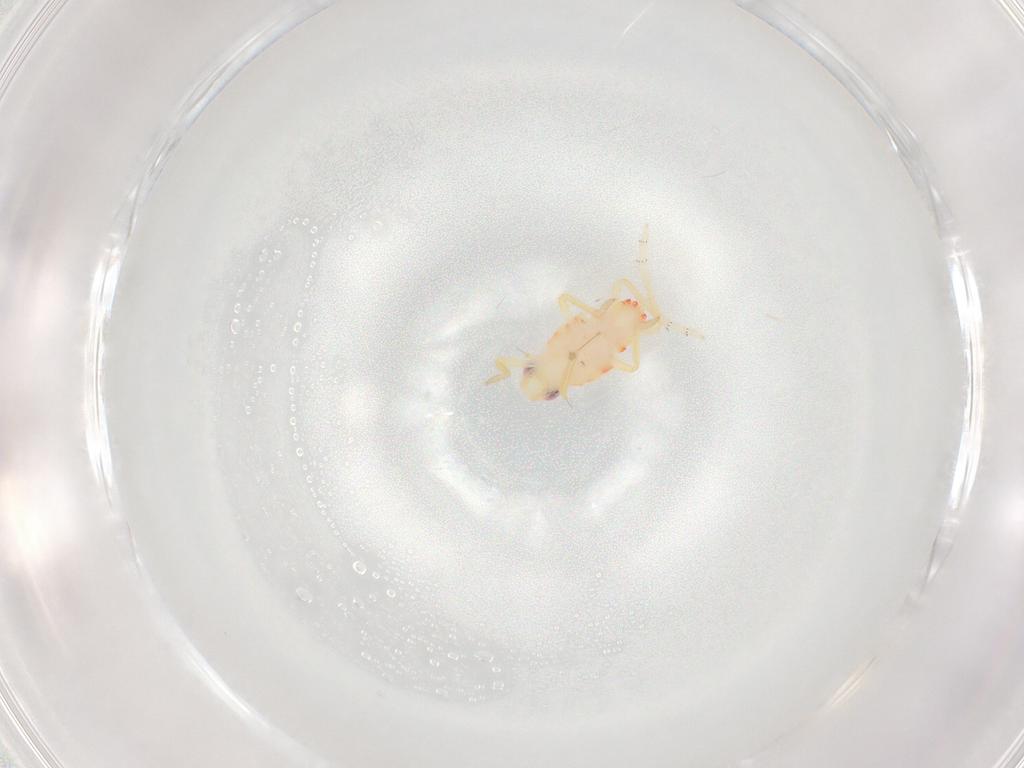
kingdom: Animalia
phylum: Arthropoda
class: Insecta
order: Hemiptera
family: Tropiduchidae
